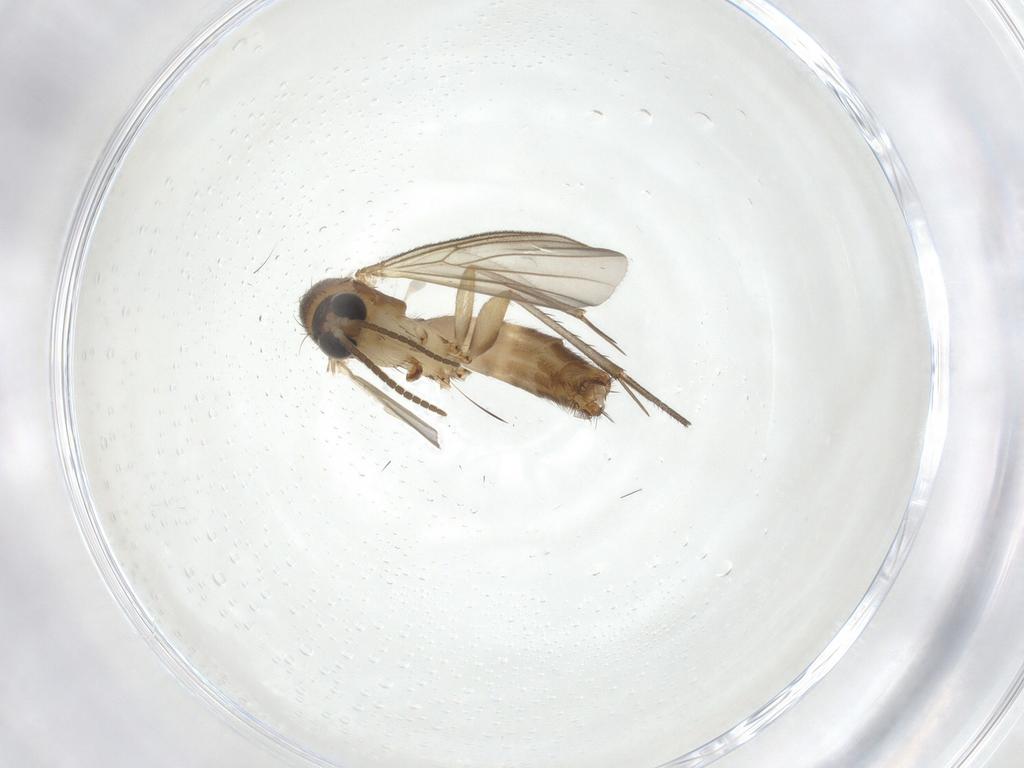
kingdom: Animalia
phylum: Arthropoda
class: Insecta
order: Diptera
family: Mycetophilidae
